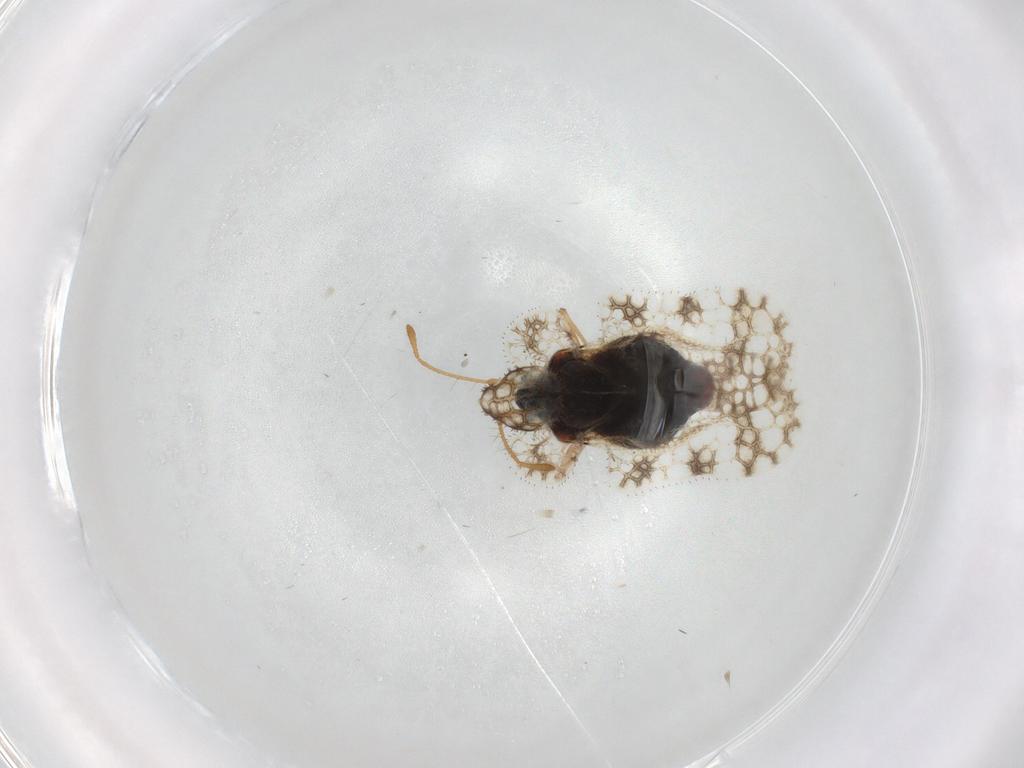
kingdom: Animalia
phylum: Arthropoda
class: Insecta
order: Hemiptera
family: Tingidae
